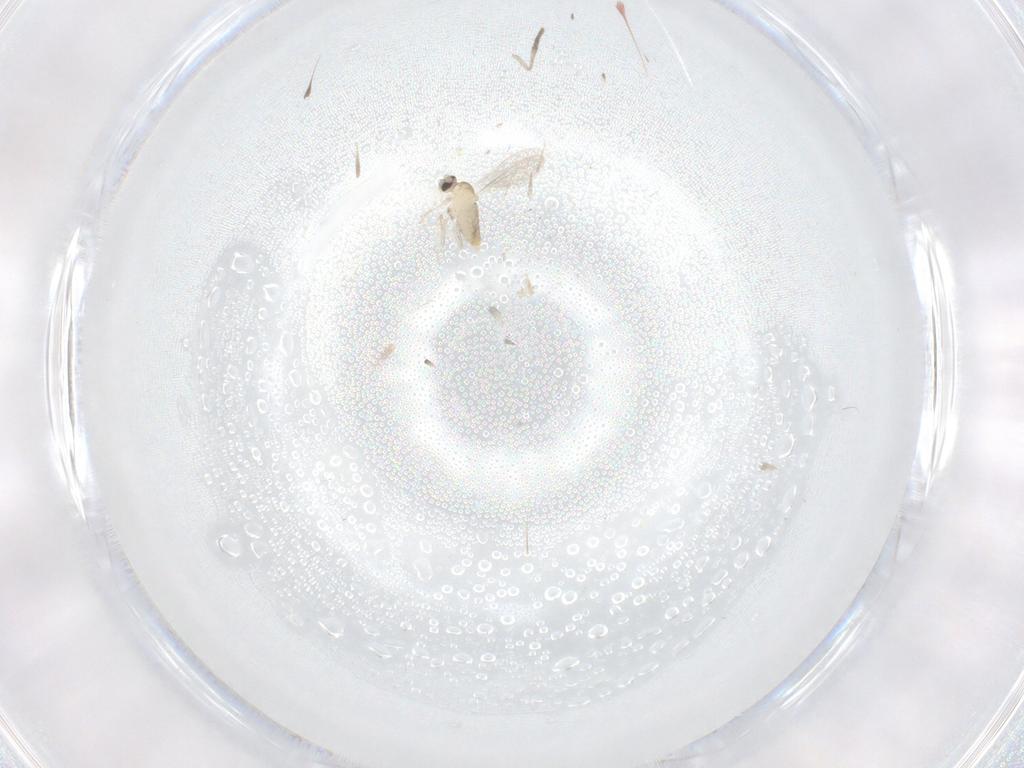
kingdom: Animalia
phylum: Arthropoda
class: Insecta
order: Diptera
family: Cecidomyiidae
